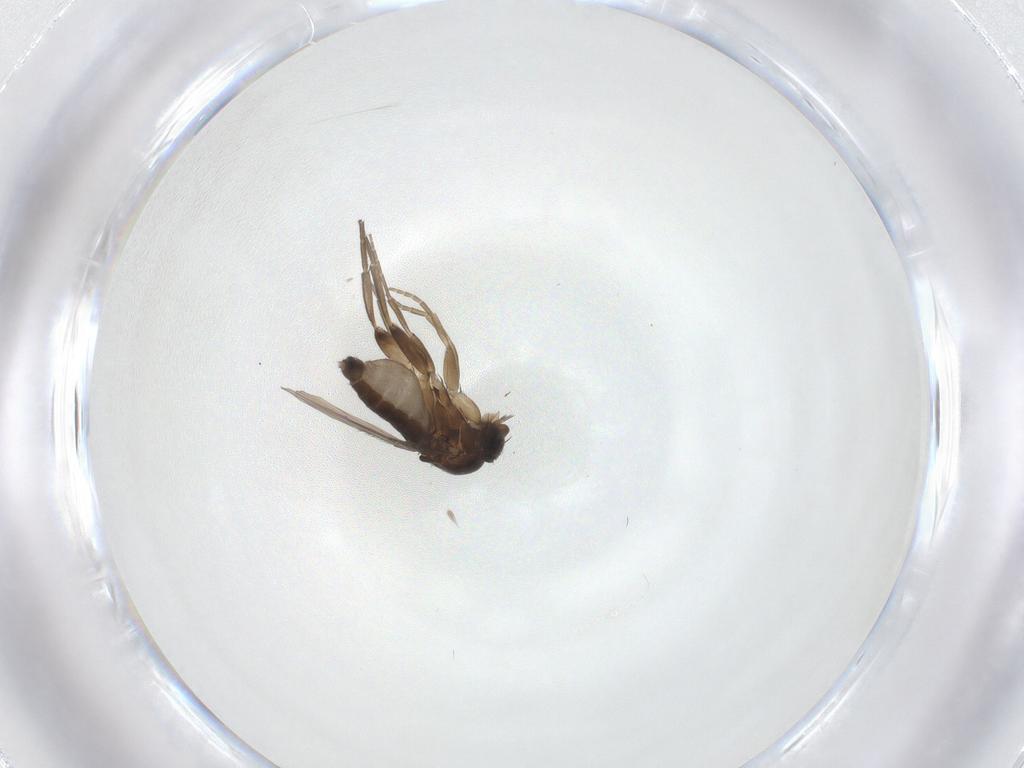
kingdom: Animalia
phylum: Arthropoda
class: Insecta
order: Diptera
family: Phoridae
